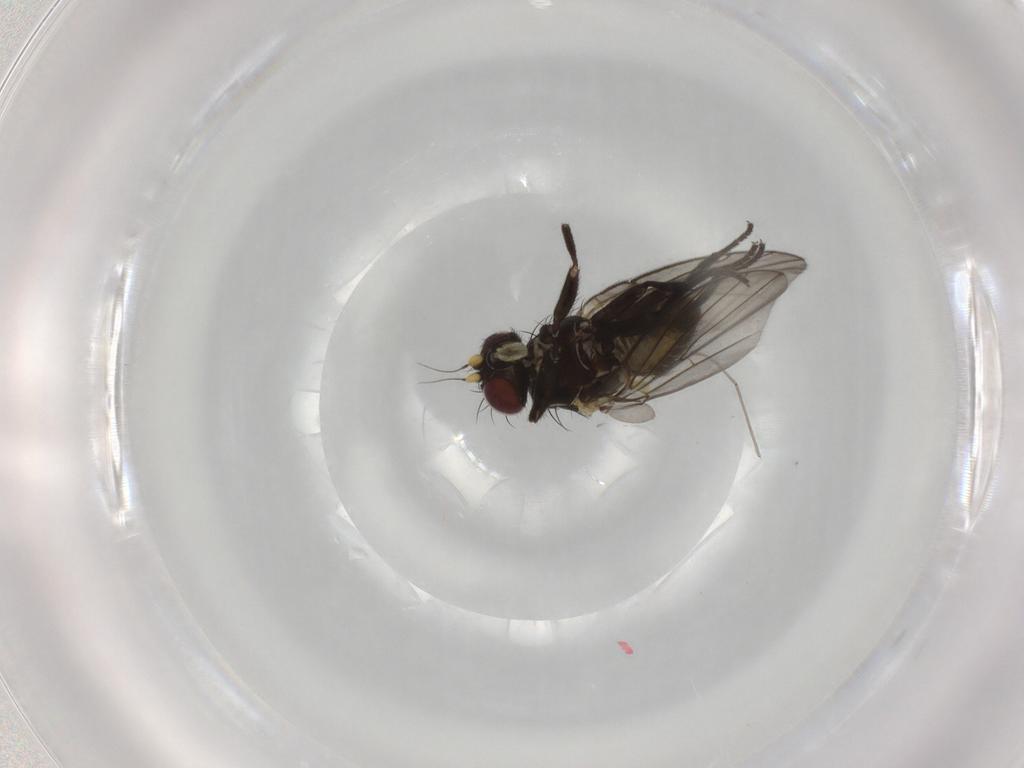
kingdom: Animalia
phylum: Arthropoda
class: Insecta
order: Diptera
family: Agromyzidae
